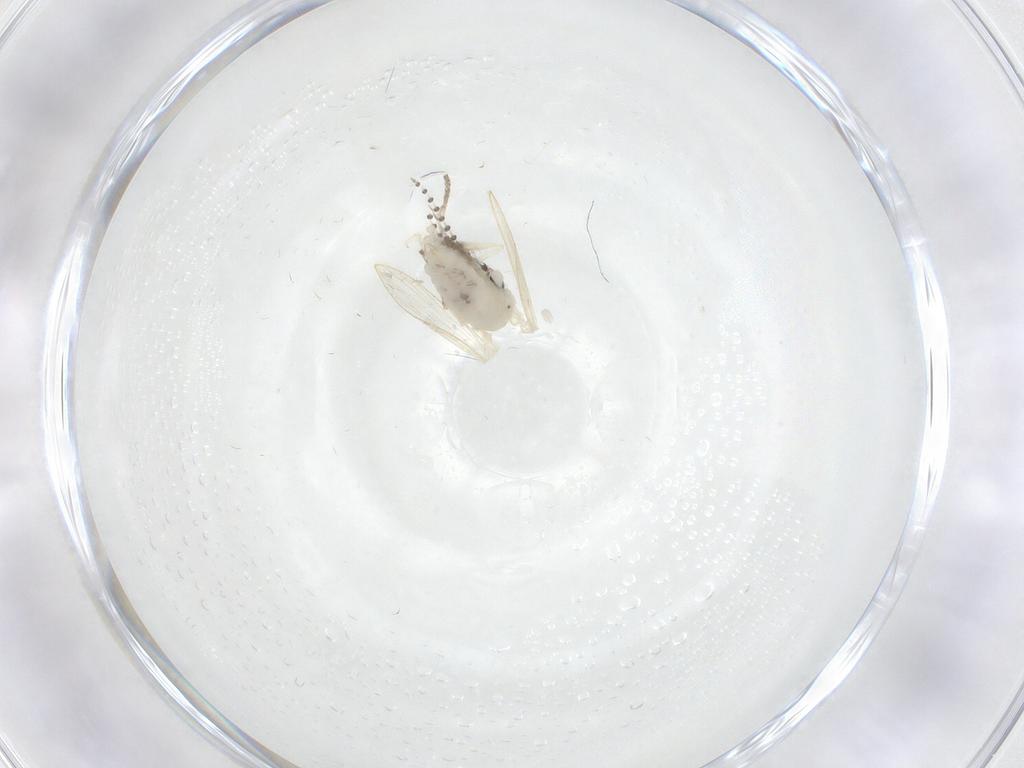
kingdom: Animalia
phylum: Arthropoda
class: Insecta
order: Diptera
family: Psychodidae
